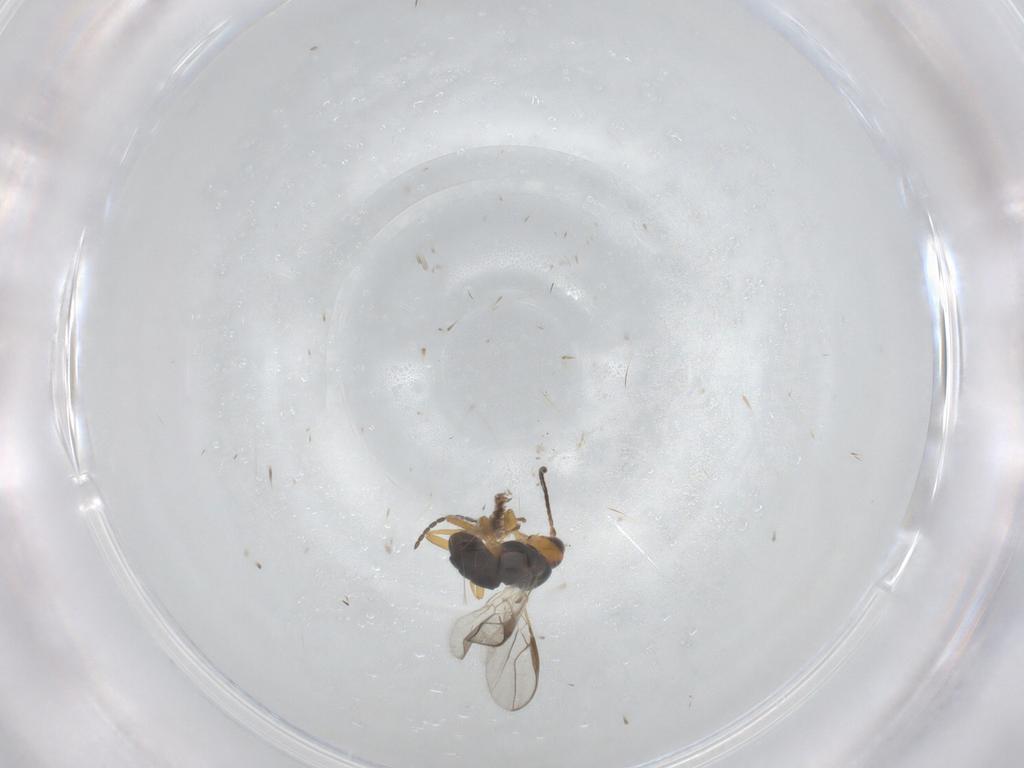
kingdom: Animalia
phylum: Arthropoda
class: Insecta
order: Hymenoptera
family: Braconidae
